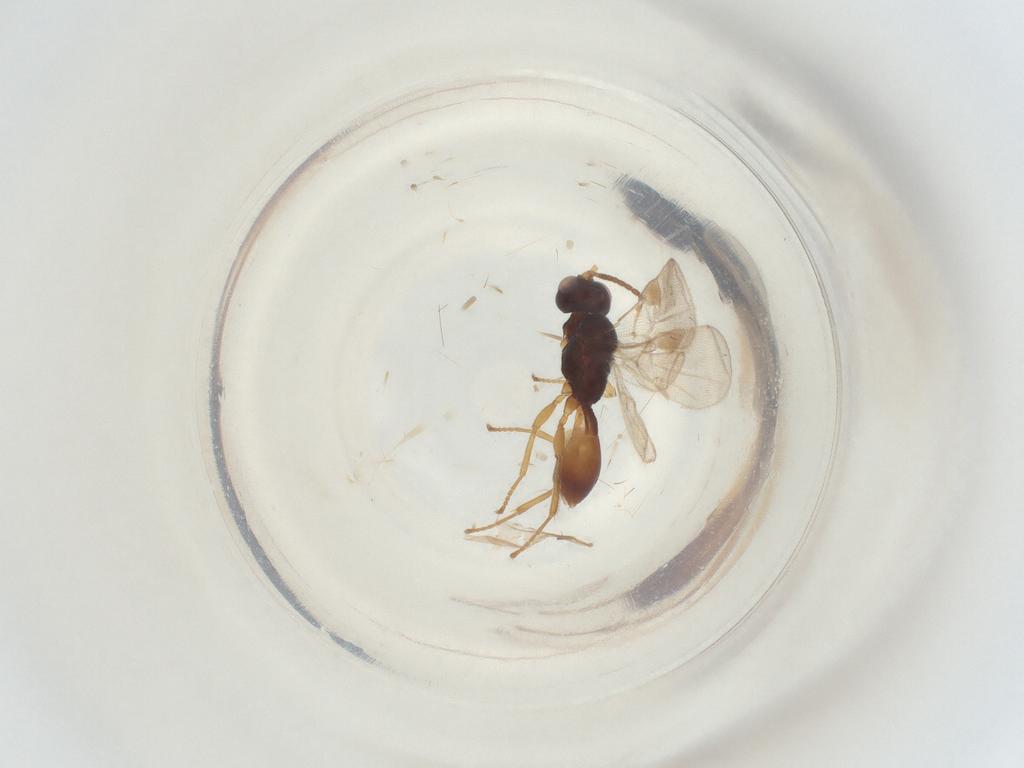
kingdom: Animalia
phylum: Arthropoda
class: Insecta
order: Hymenoptera
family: Braconidae
